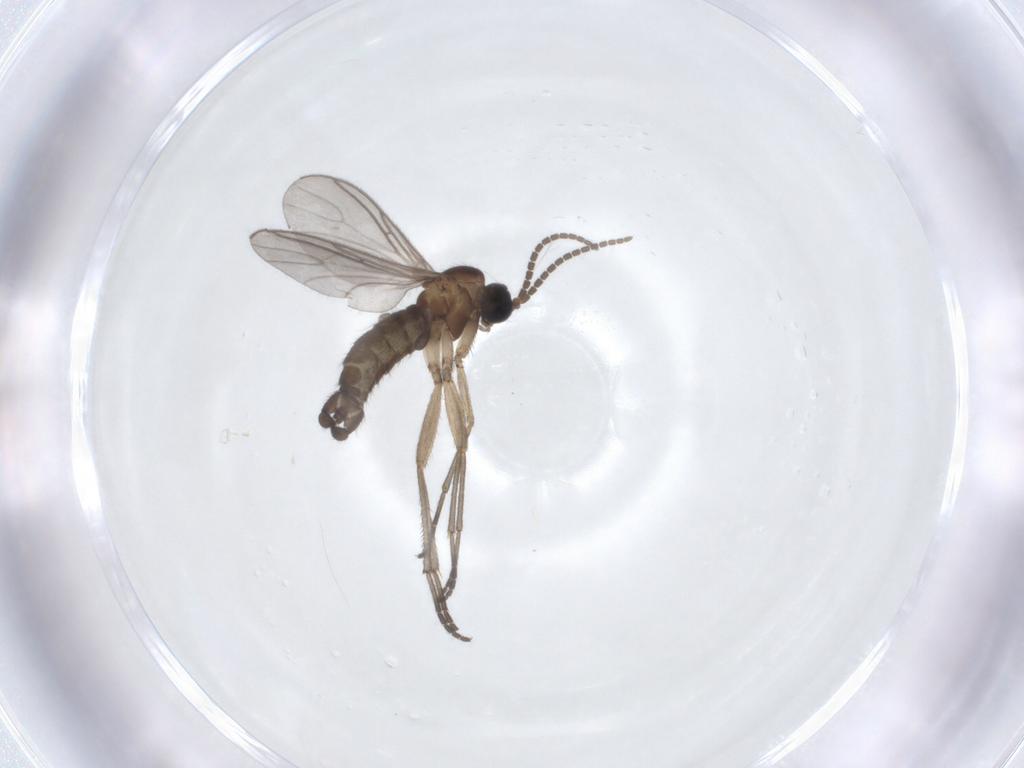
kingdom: Animalia
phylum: Arthropoda
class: Insecta
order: Diptera
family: Sciaridae
